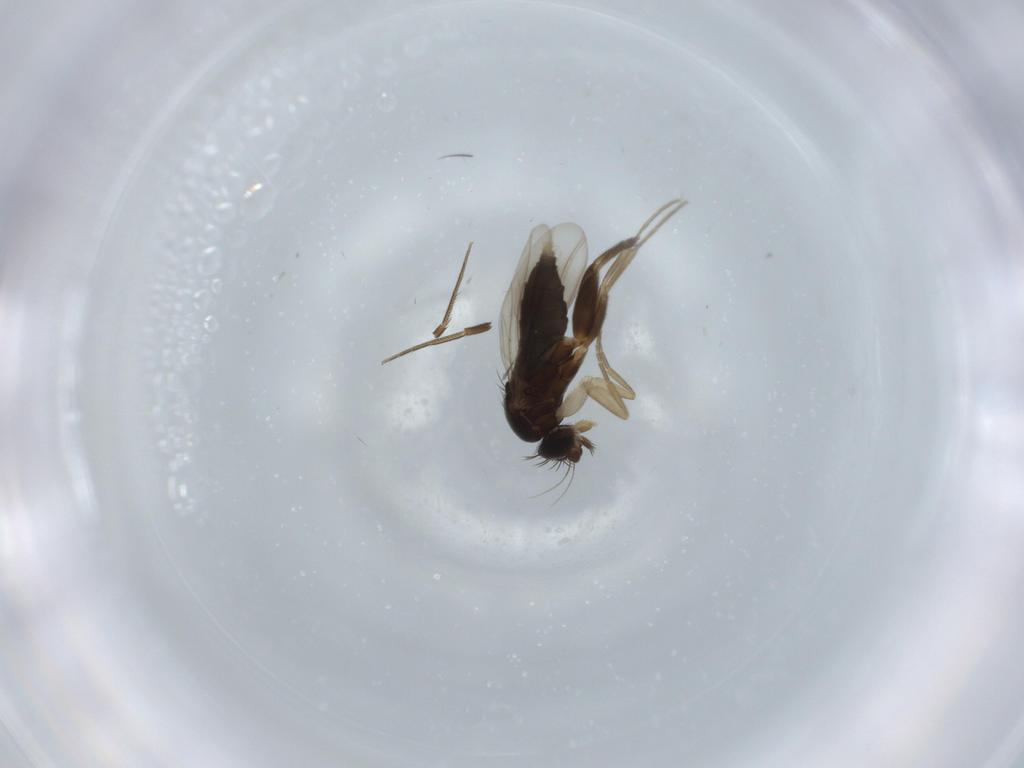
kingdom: Animalia
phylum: Arthropoda
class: Insecta
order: Diptera
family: Phoridae
